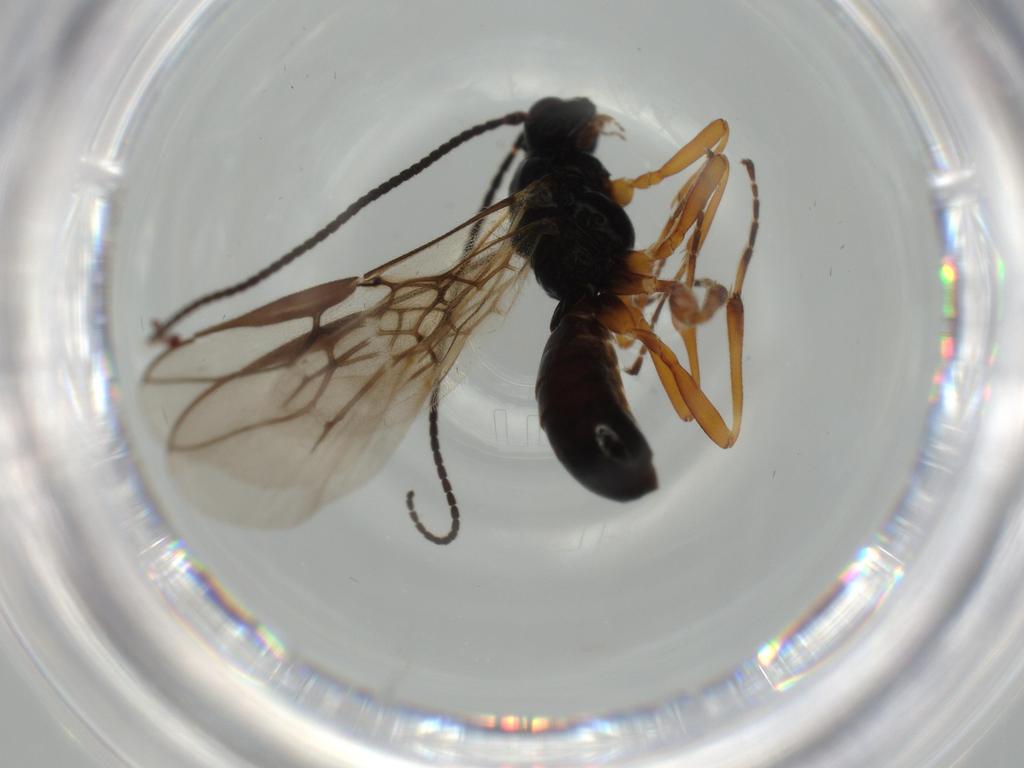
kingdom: Animalia
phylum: Arthropoda
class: Insecta
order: Hymenoptera
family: Braconidae
